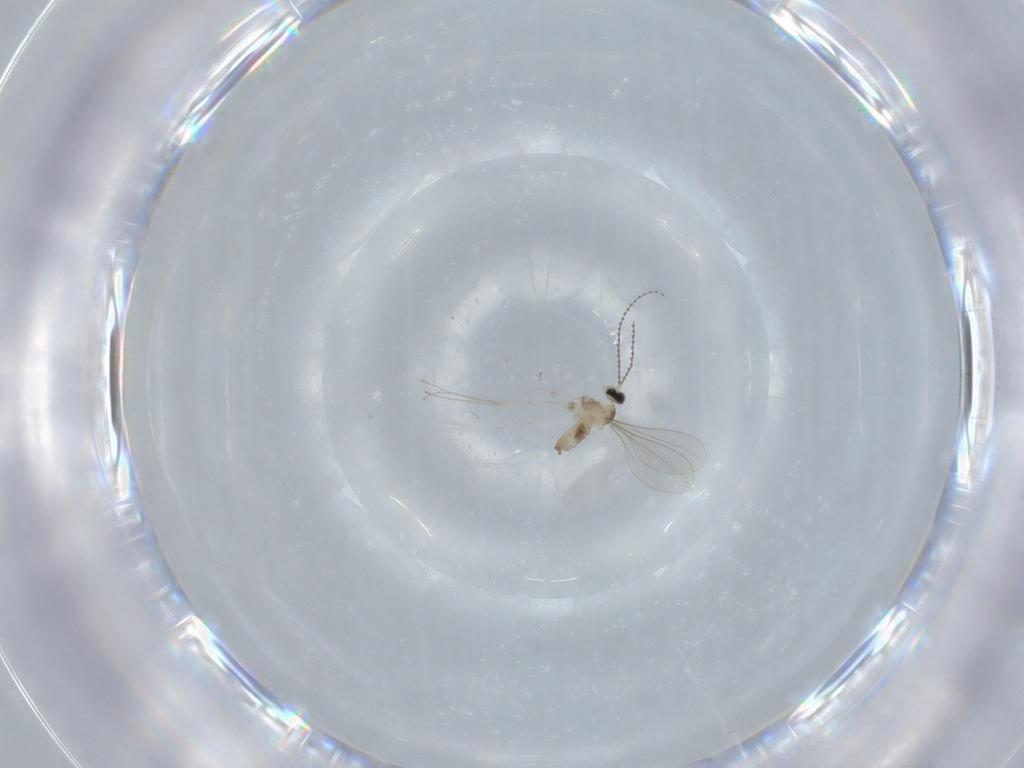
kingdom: Animalia
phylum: Arthropoda
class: Insecta
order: Diptera
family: Cecidomyiidae
